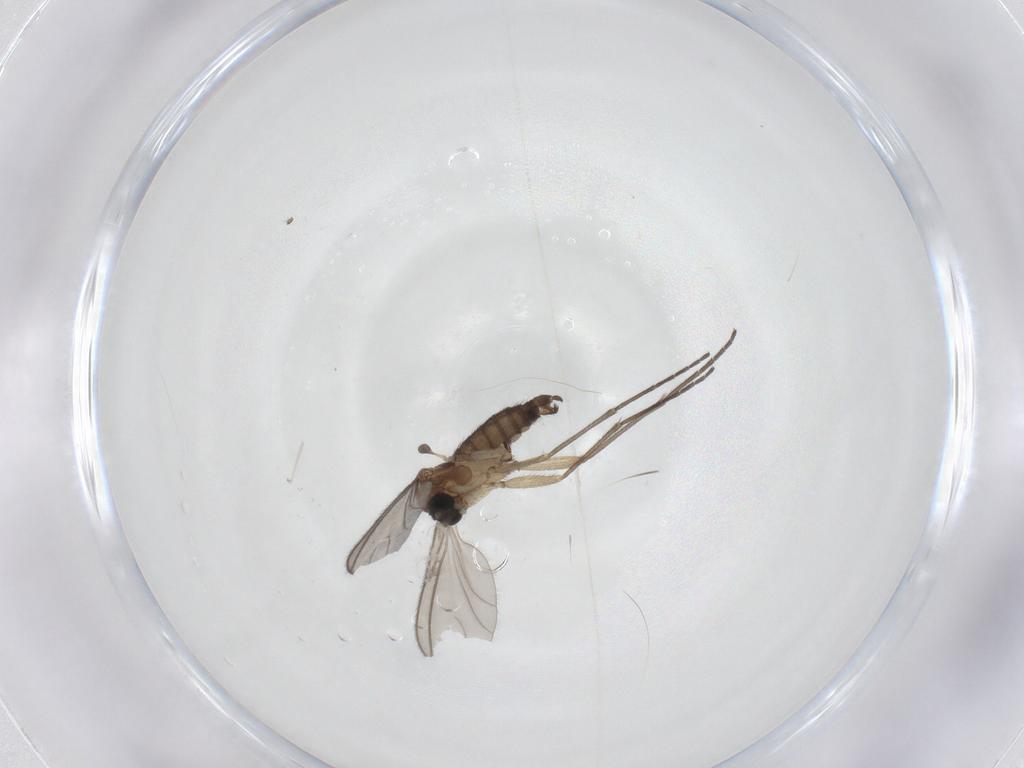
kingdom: Animalia
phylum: Arthropoda
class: Insecta
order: Diptera
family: Sciaridae
